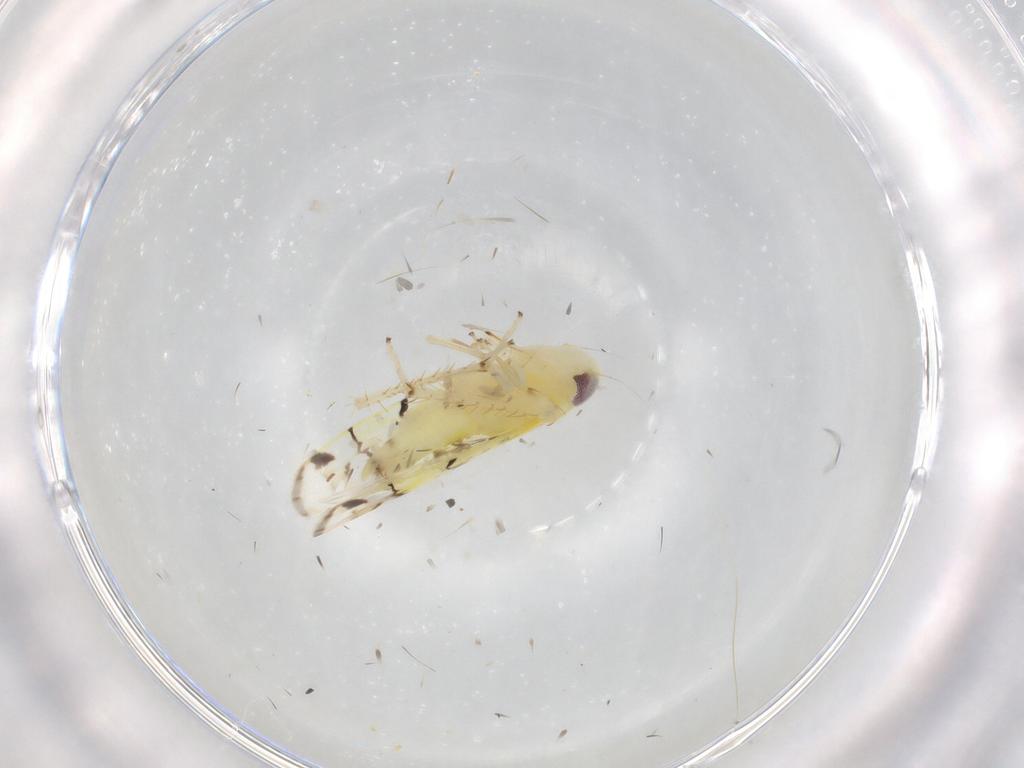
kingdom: Animalia
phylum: Arthropoda
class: Insecta
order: Hemiptera
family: Cicadellidae
